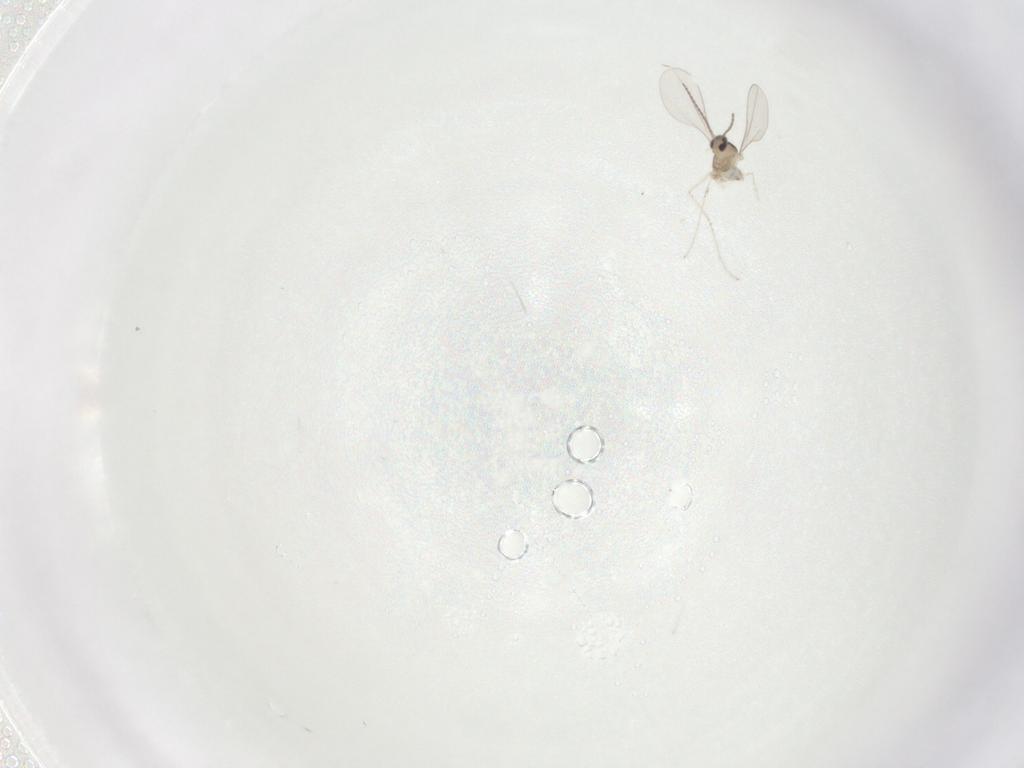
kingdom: Animalia
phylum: Arthropoda
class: Insecta
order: Diptera
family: Cecidomyiidae
